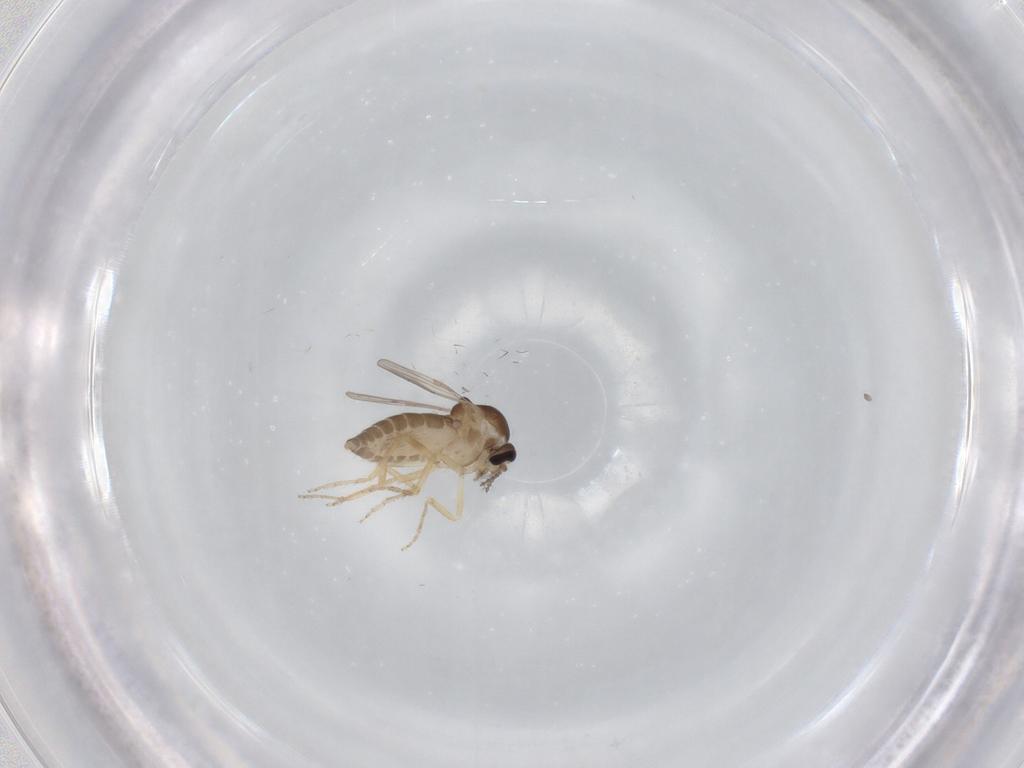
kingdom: Animalia
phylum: Arthropoda
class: Insecta
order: Diptera
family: Ceratopogonidae
